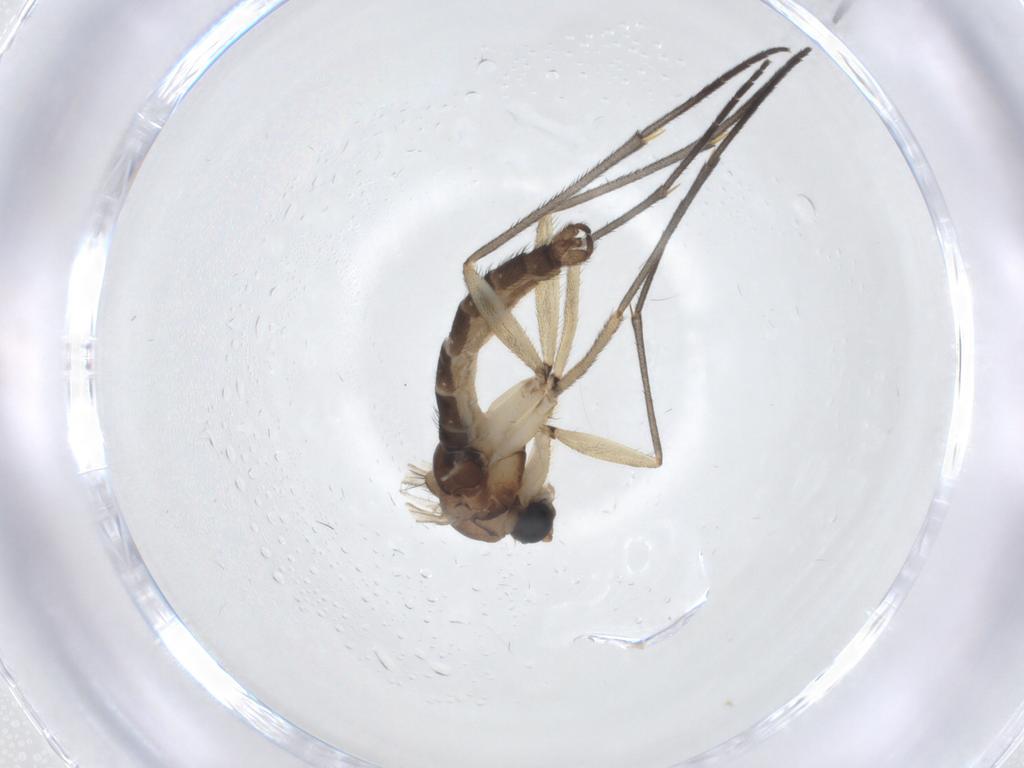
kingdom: Animalia
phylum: Arthropoda
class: Insecta
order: Diptera
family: Sciaridae
